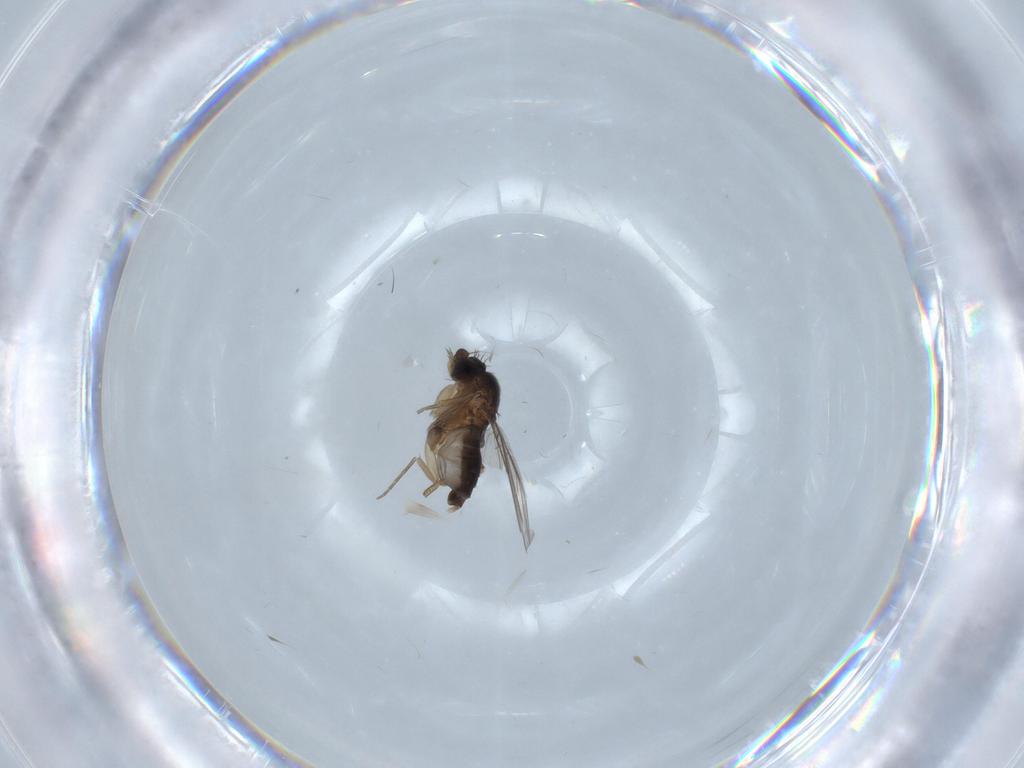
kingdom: Animalia
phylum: Arthropoda
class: Insecta
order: Diptera
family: Phoridae
